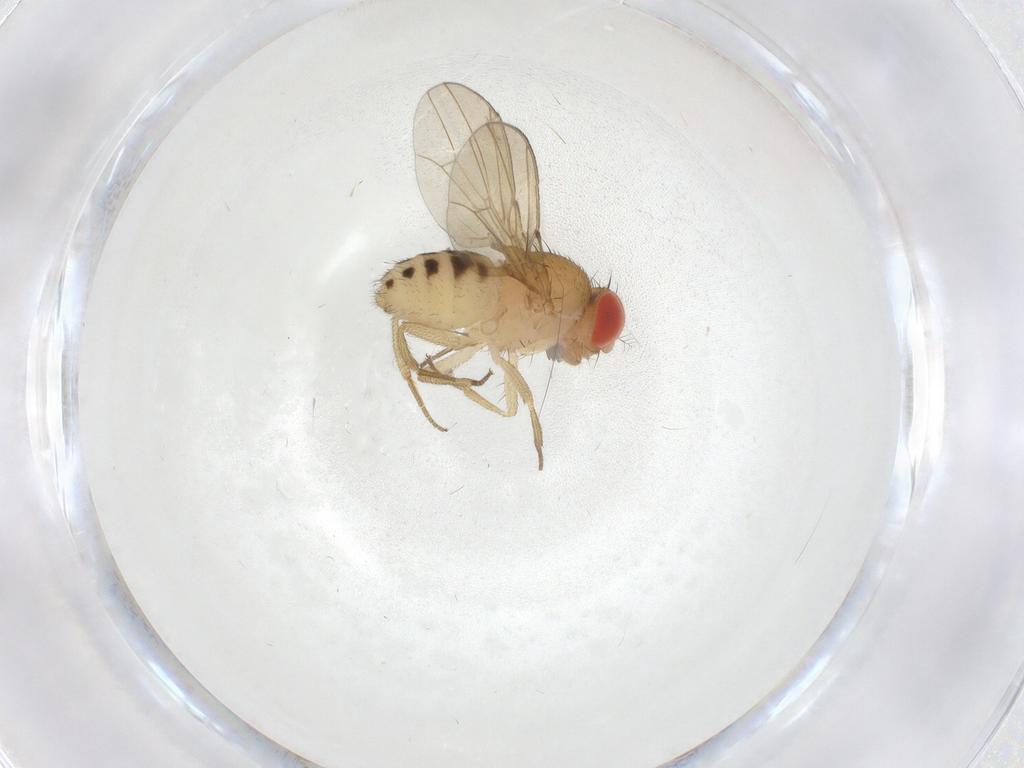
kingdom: Animalia
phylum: Arthropoda
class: Insecta
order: Diptera
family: Drosophilidae
